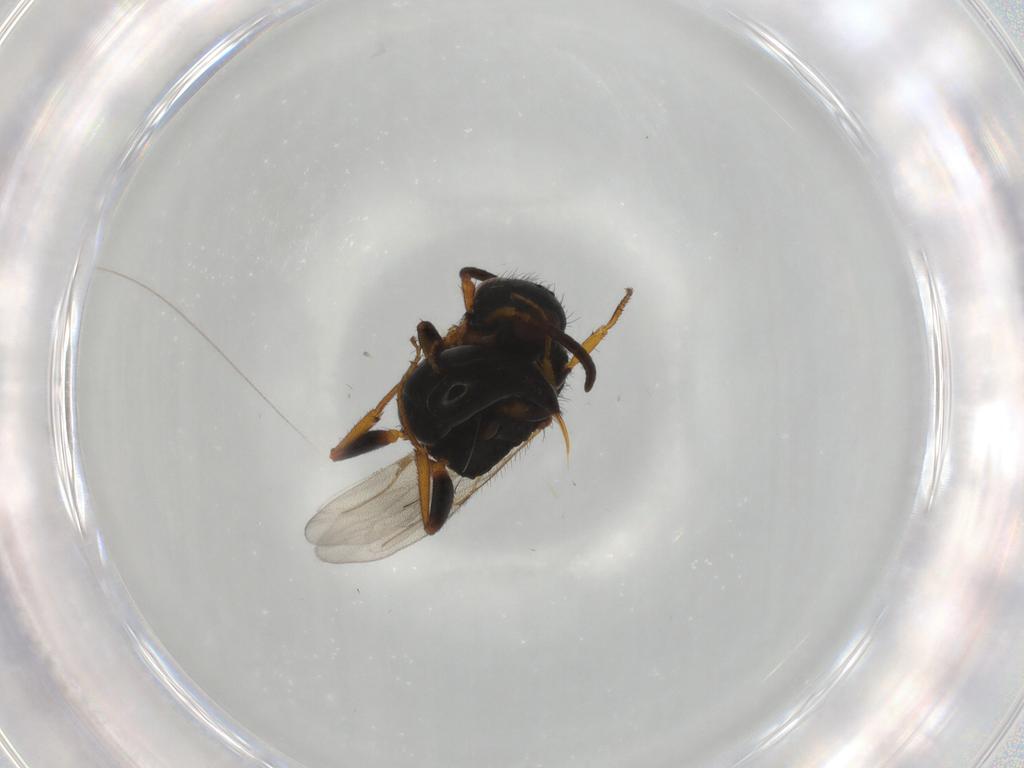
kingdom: Animalia
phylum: Arthropoda
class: Insecta
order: Hymenoptera
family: Bethylidae
